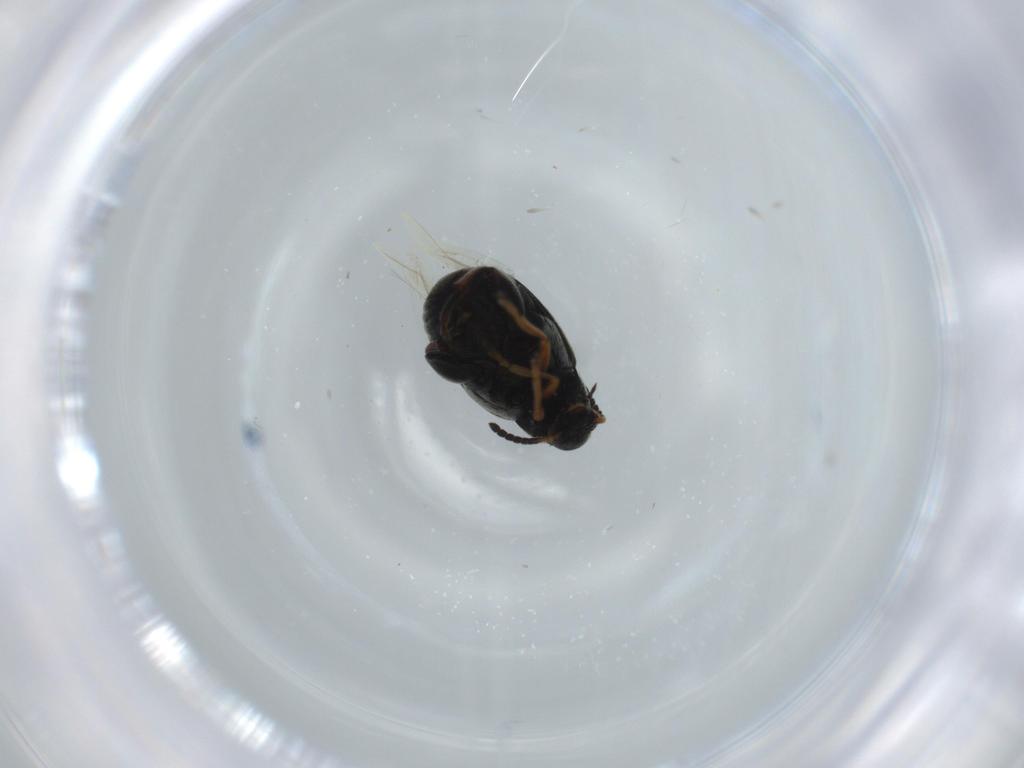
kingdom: Animalia
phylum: Arthropoda
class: Insecta
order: Coleoptera
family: Chrysomelidae
